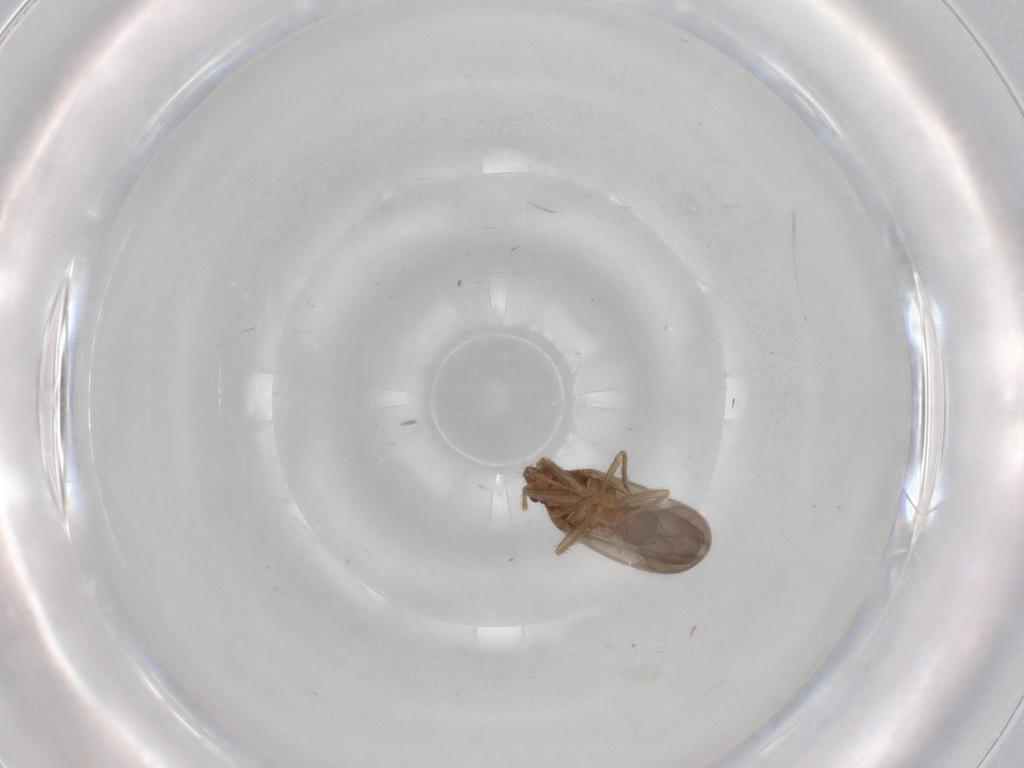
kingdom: Animalia
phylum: Arthropoda
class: Insecta
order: Hemiptera
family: Ceratocombidae
